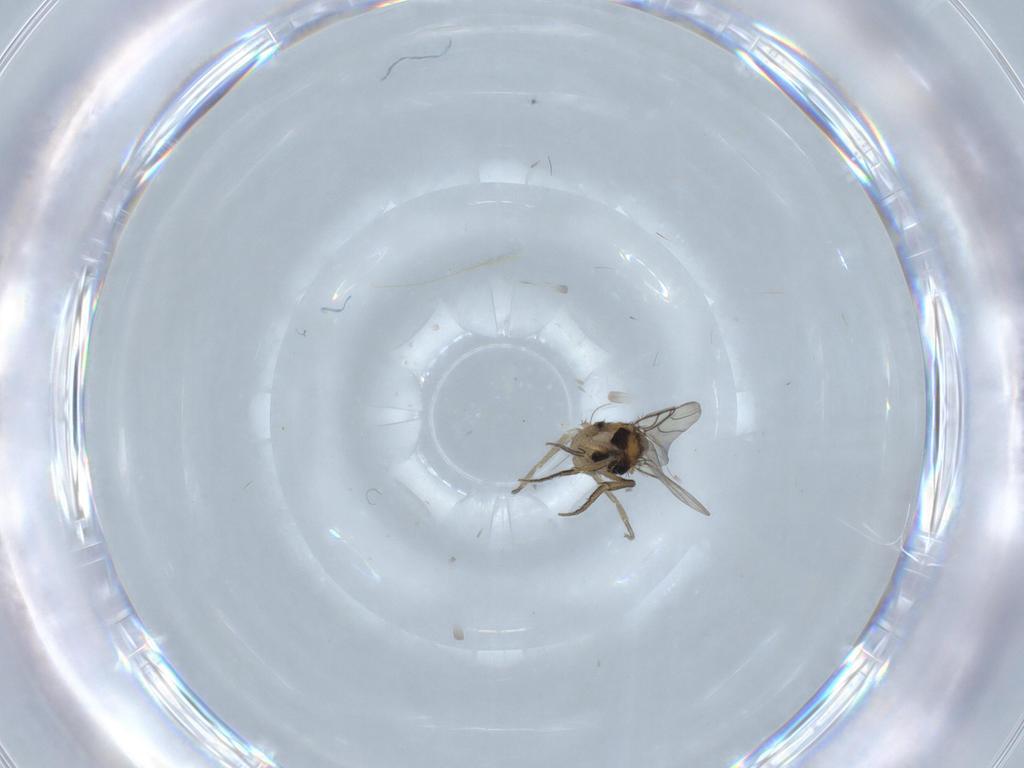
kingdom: Animalia
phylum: Arthropoda
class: Insecta
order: Diptera
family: Phoridae
